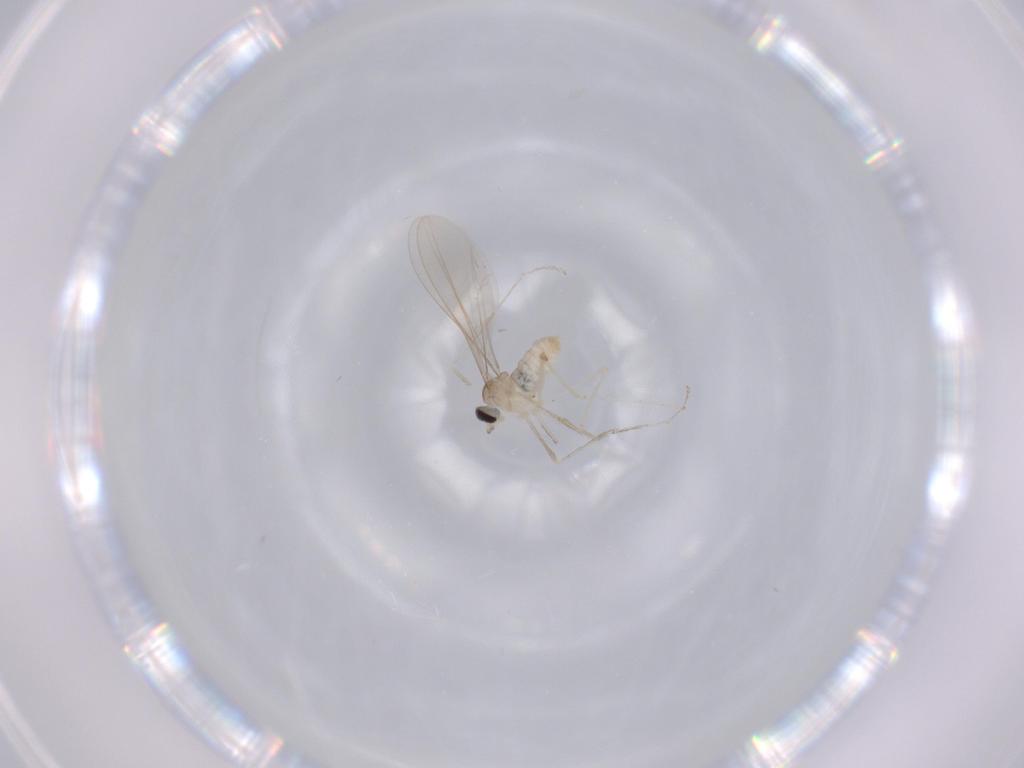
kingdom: Animalia
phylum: Arthropoda
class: Insecta
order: Diptera
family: Cecidomyiidae
